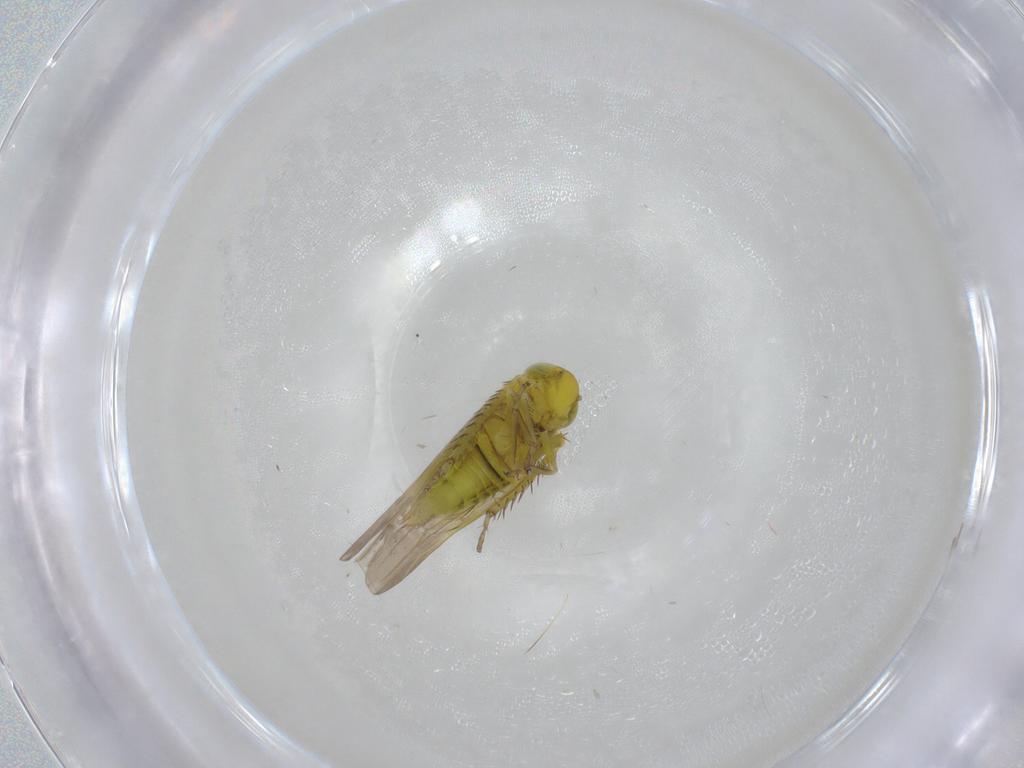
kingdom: Animalia
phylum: Arthropoda
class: Insecta
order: Hemiptera
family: Cicadellidae
